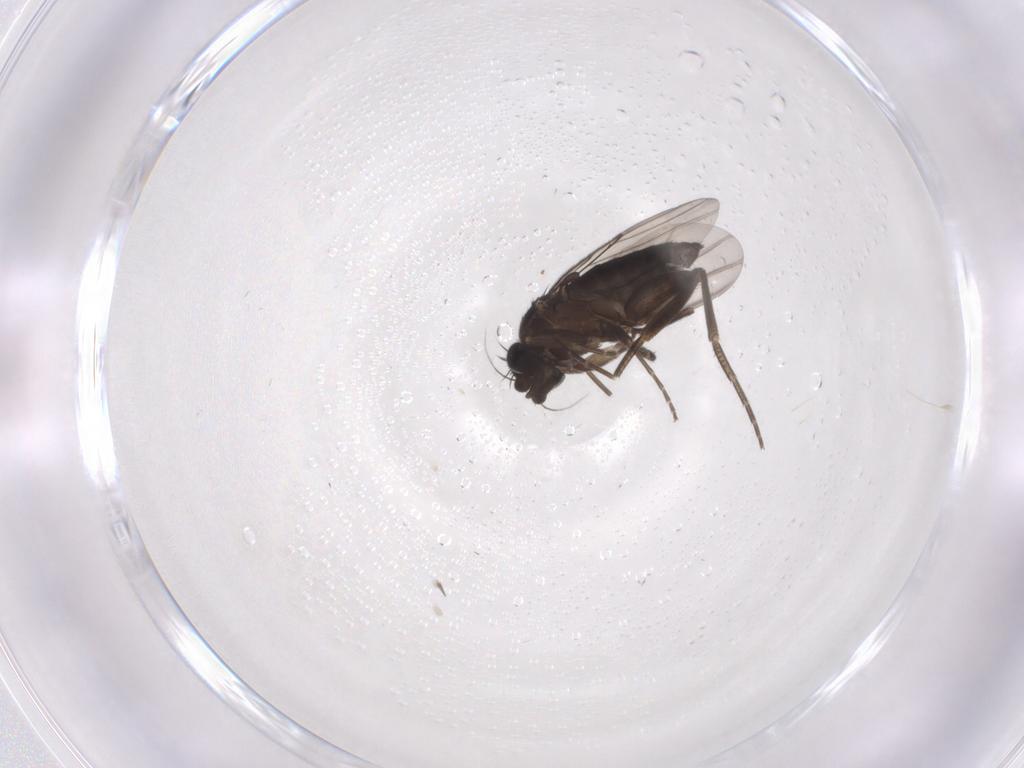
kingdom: Animalia
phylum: Arthropoda
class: Insecta
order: Diptera
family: Phoridae
